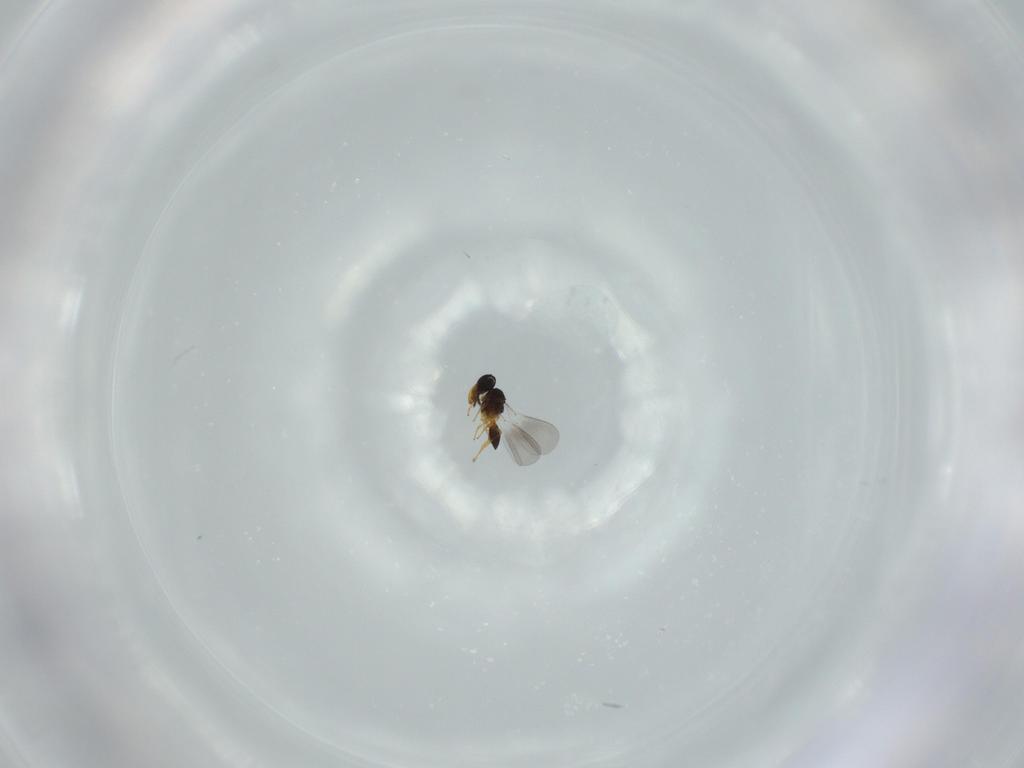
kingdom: Animalia
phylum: Arthropoda
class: Insecta
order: Hymenoptera
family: Platygastridae
